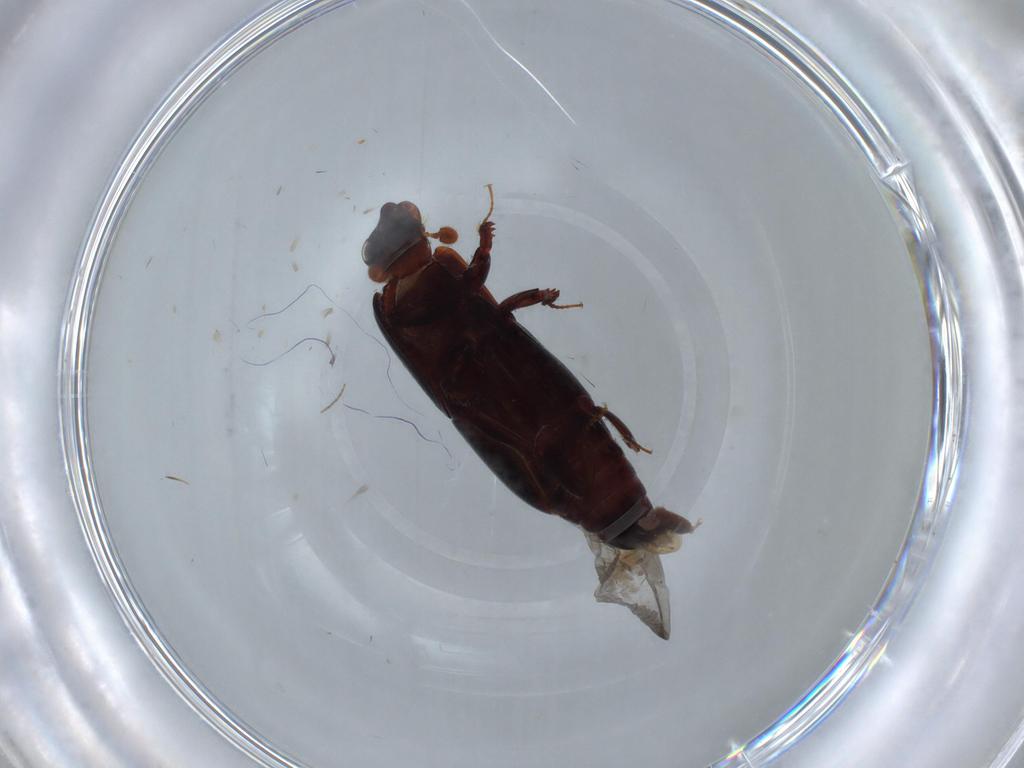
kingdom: Animalia
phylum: Arthropoda
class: Insecta
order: Coleoptera
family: Histeridae
